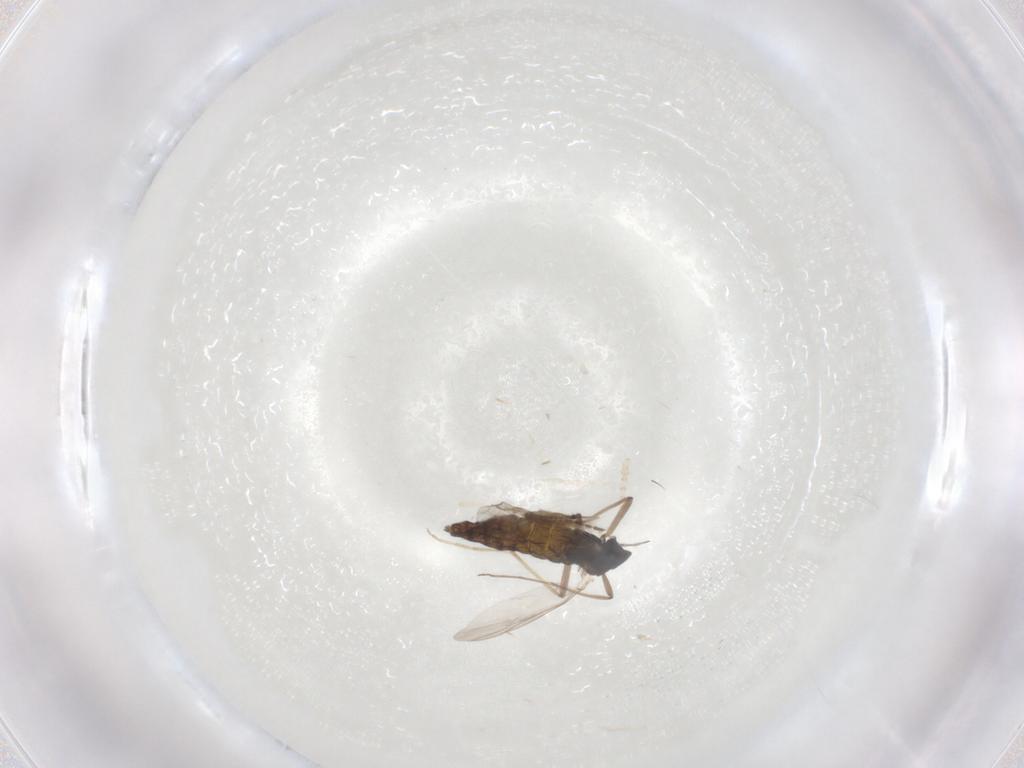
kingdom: Animalia
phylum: Arthropoda
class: Insecta
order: Diptera
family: Chironomidae
